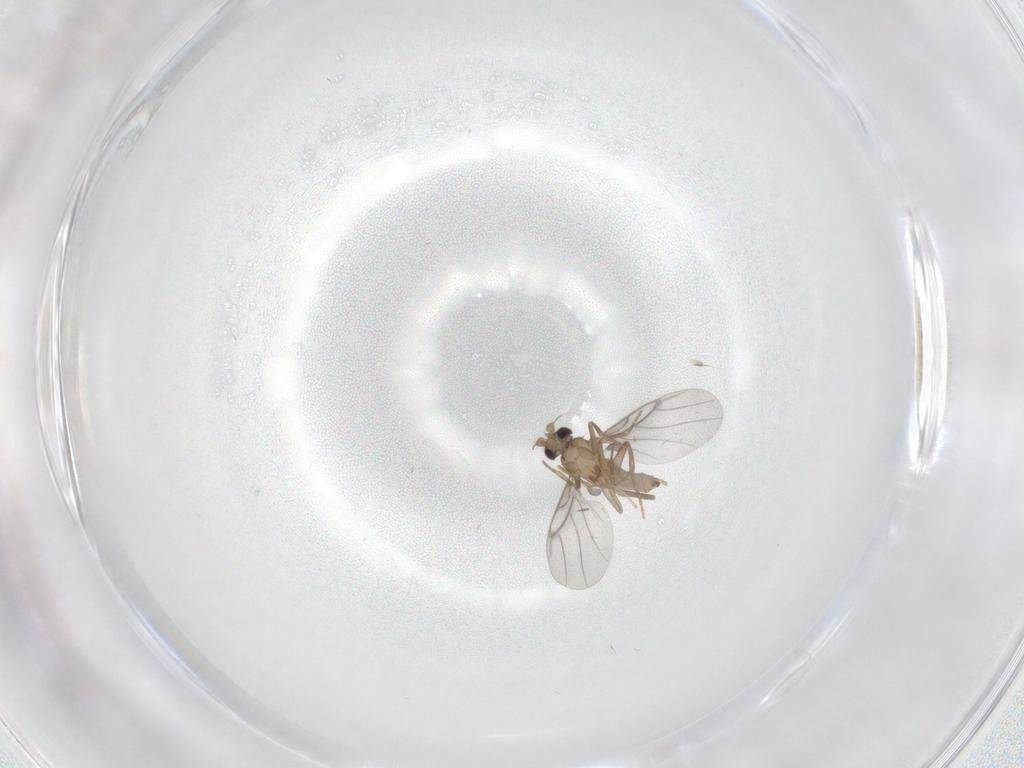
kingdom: Animalia
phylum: Arthropoda
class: Insecta
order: Diptera
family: Cecidomyiidae
